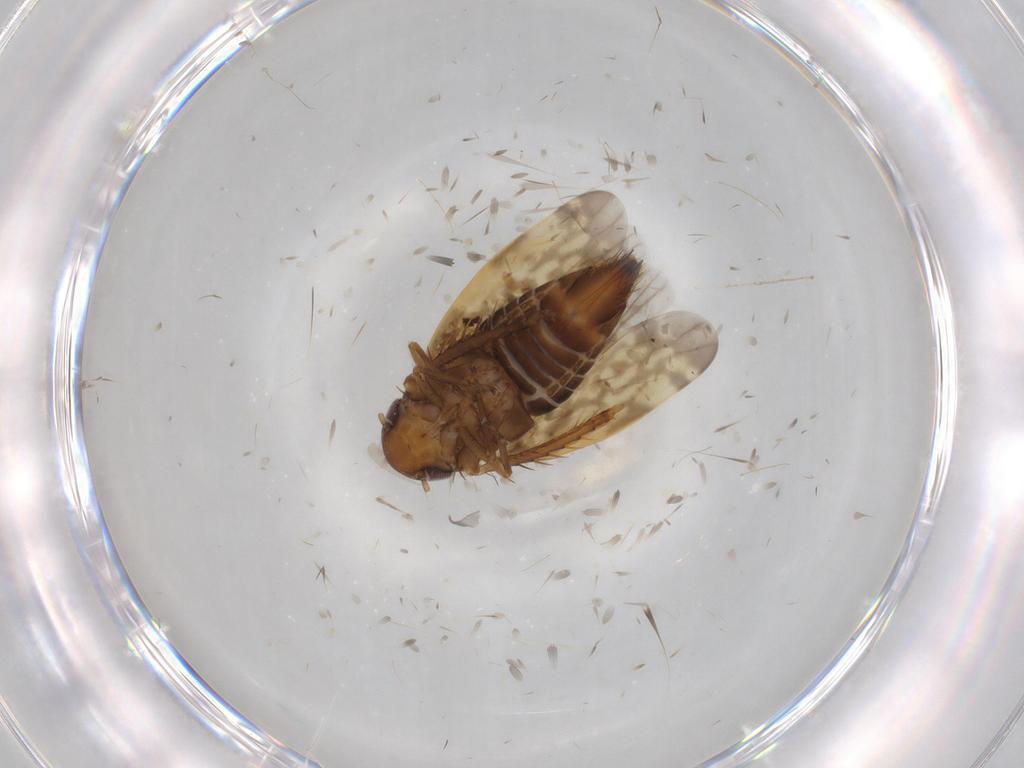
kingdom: Animalia
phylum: Arthropoda
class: Insecta
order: Hemiptera
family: Cicadellidae
